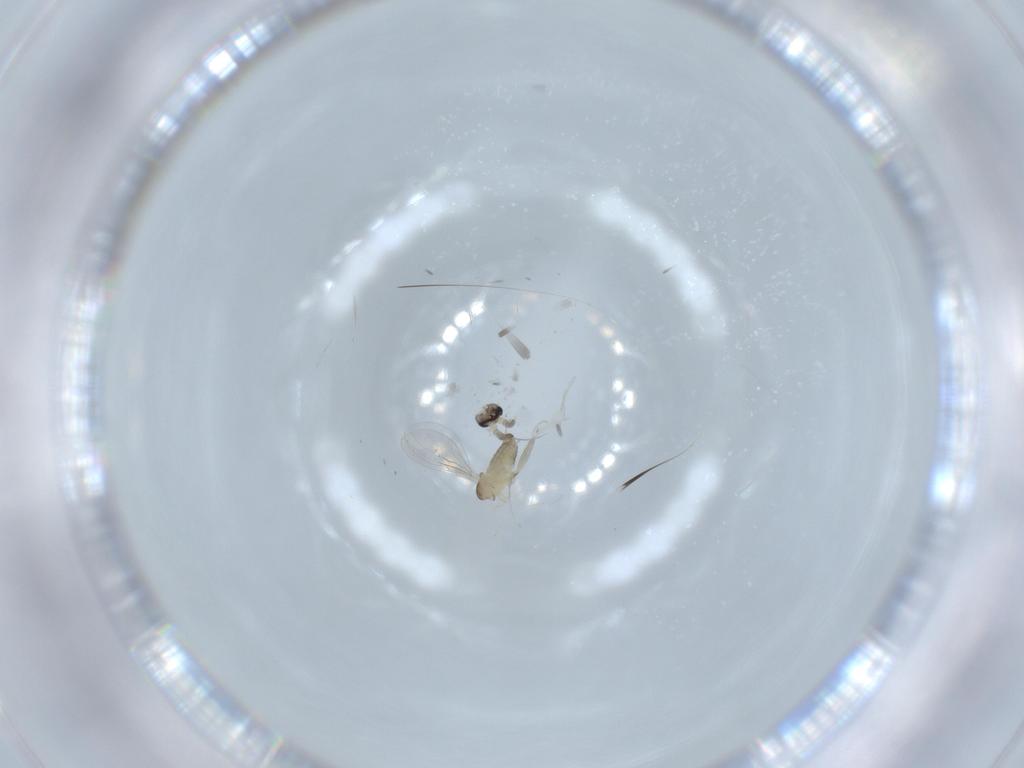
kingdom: Animalia
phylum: Arthropoda
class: Insecta
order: Diptera
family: Cecidomyiidae
